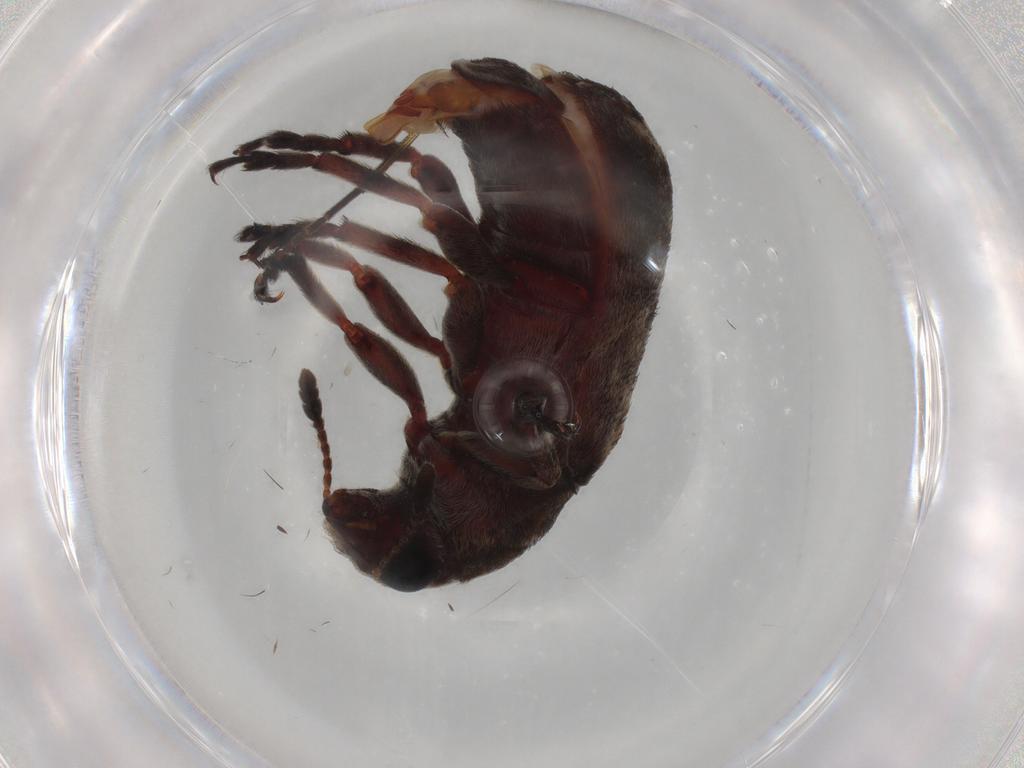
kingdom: Animalia
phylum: Arthropoda
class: Insecta
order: Coleoptera
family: Anthribidae
